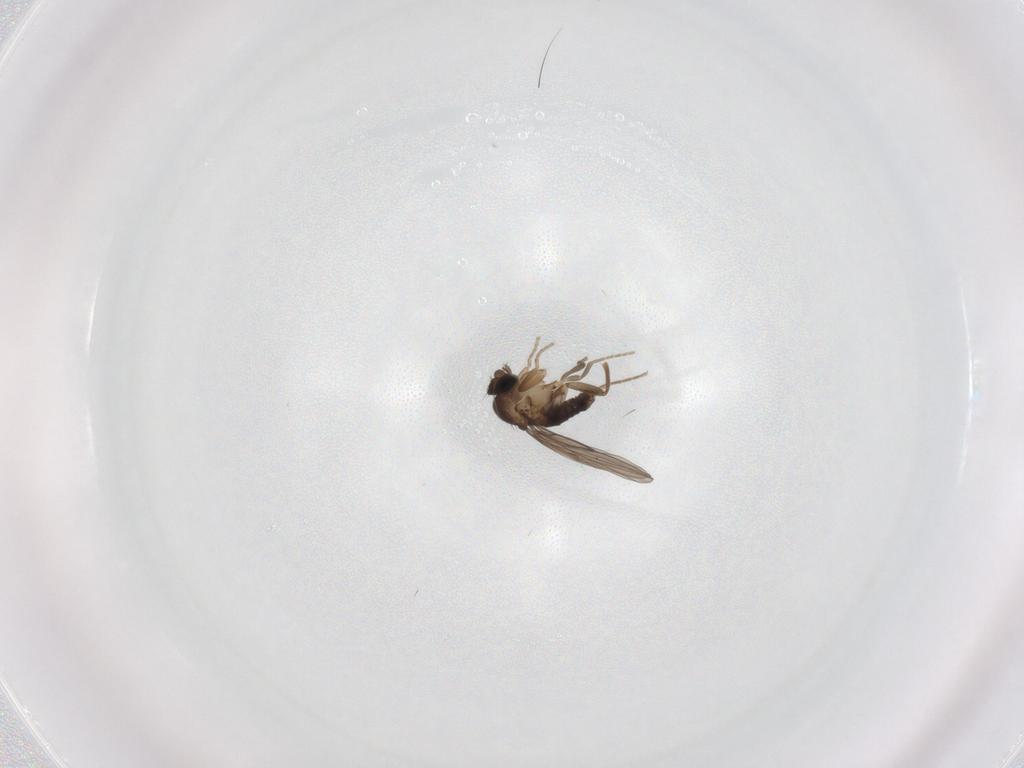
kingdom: Animalia
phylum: Arthropoda
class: Insecta
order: Diptera
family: Phoridae
